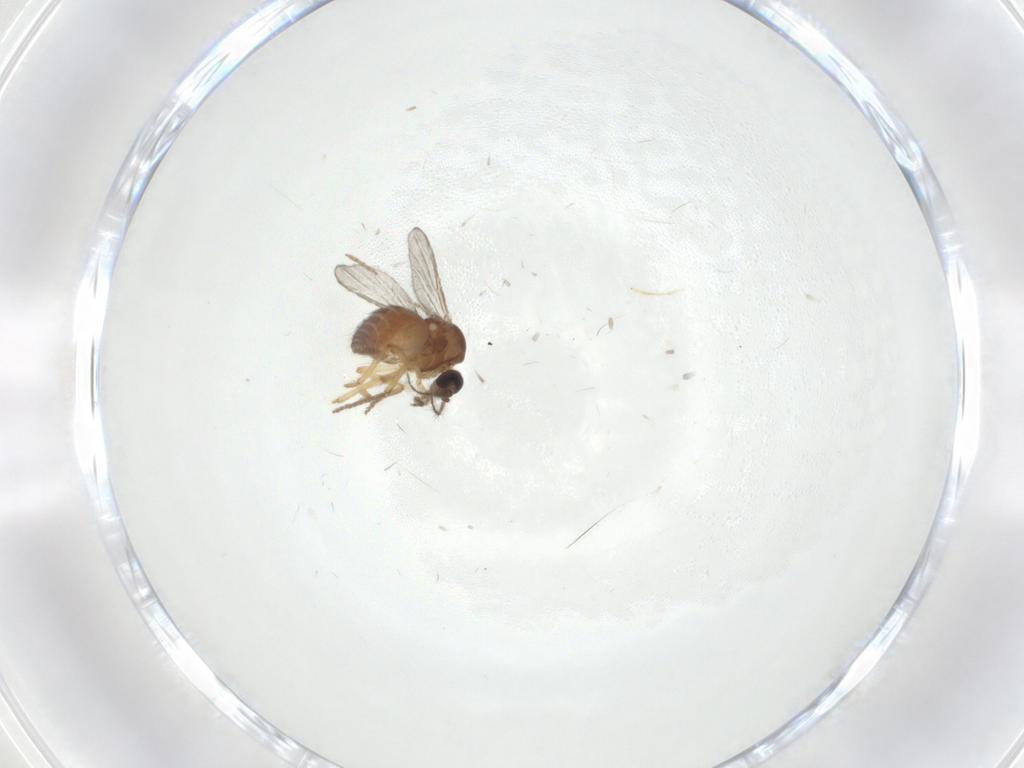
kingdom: Animalia
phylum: Arthropoda
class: Insecta
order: Diptera
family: Ceratopogonidae
